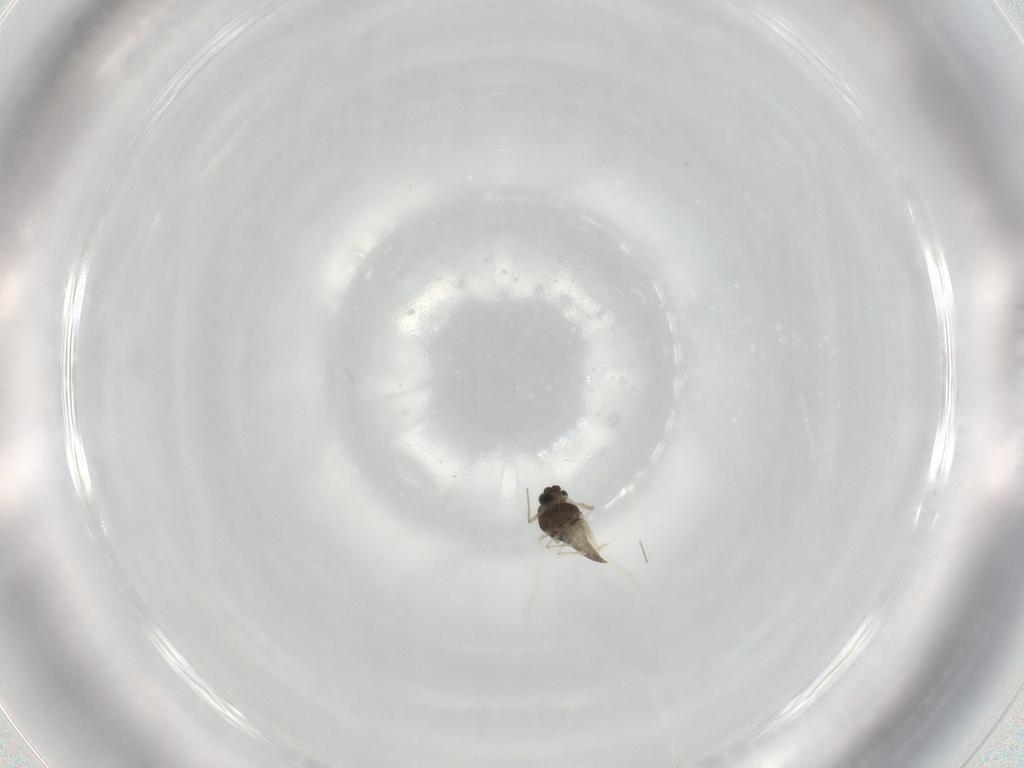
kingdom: Animalia
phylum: Arthropoda
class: Insecta
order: Diptera
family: Chironomidae
